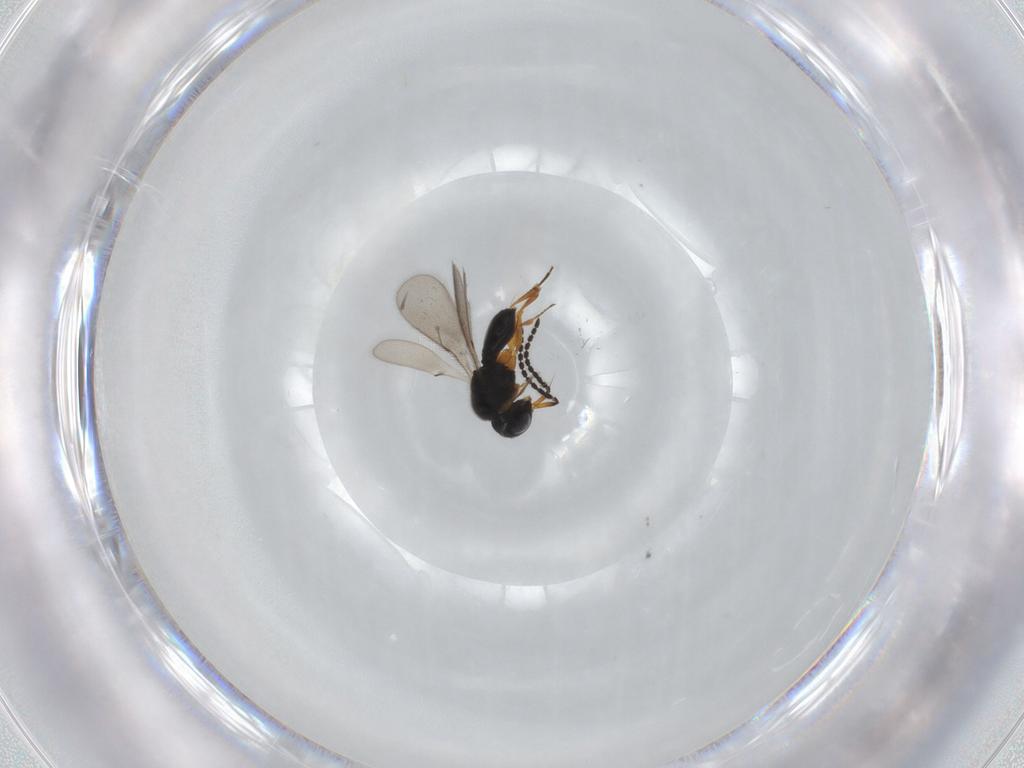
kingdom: Animalia
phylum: Arthropoda
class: Insecta
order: Hymenoptera
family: Scelionidae
